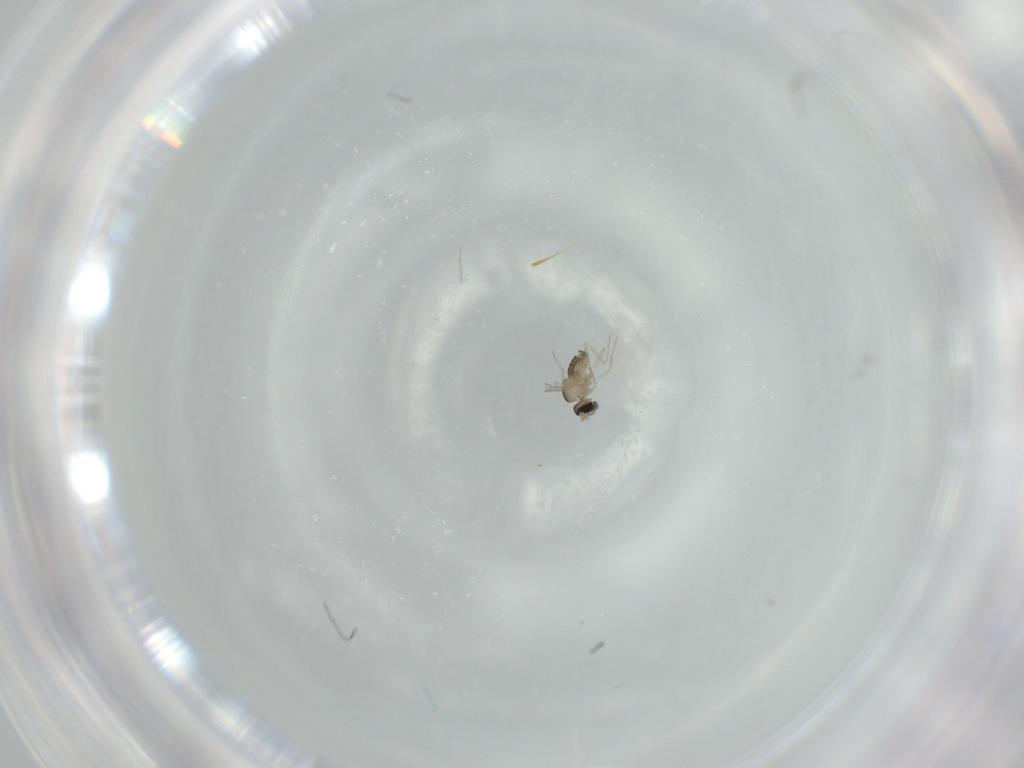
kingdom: Animalia
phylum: Arthropoda
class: Insecta
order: Diptera
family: Cecidomyiidae
